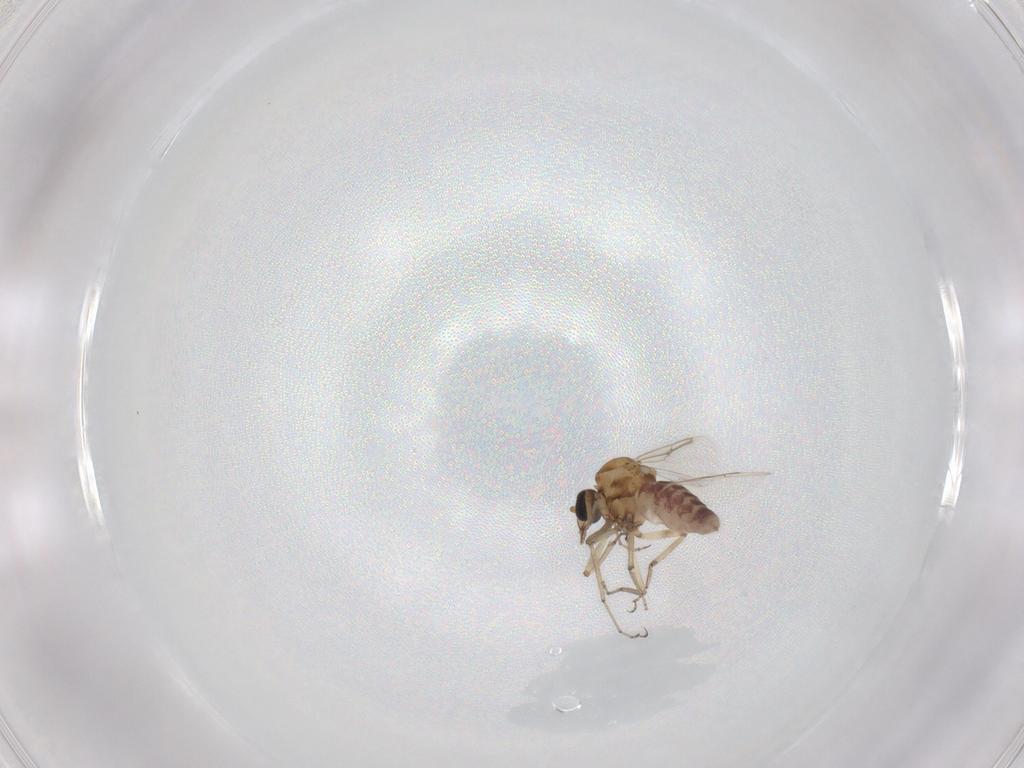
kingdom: Animalia
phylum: Arthropoda
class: Insecta
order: Diptera
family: Ceratopogonidae
